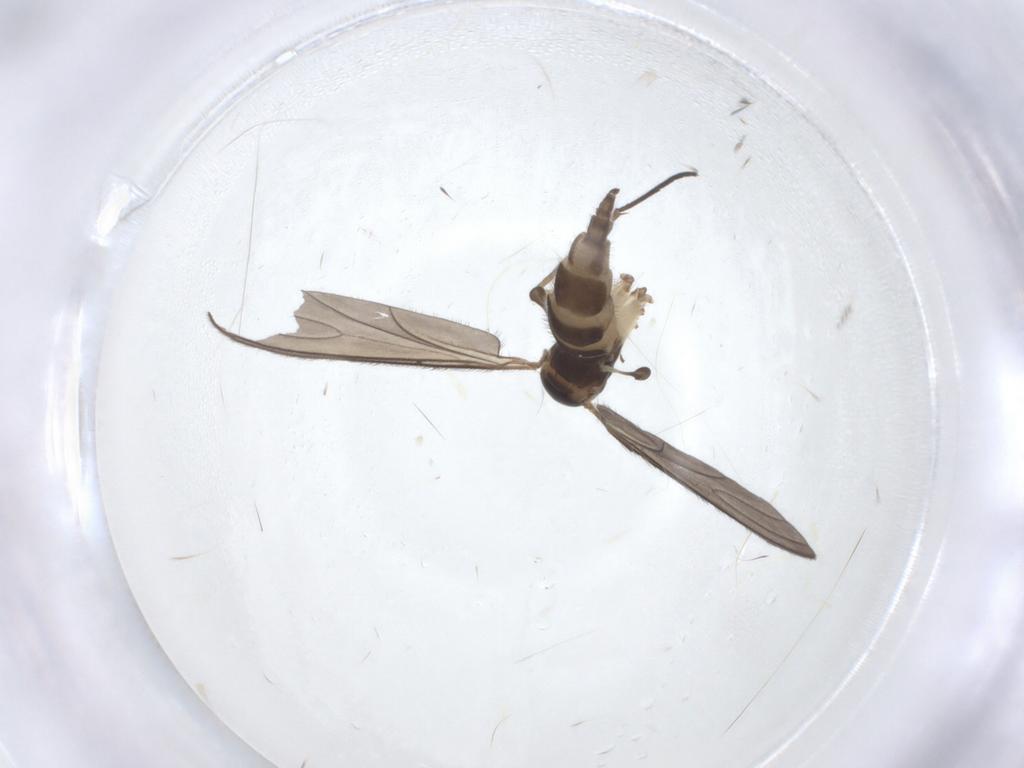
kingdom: Animalia
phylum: Arthropoda
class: Insecta
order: Diptera
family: Sciaridae
